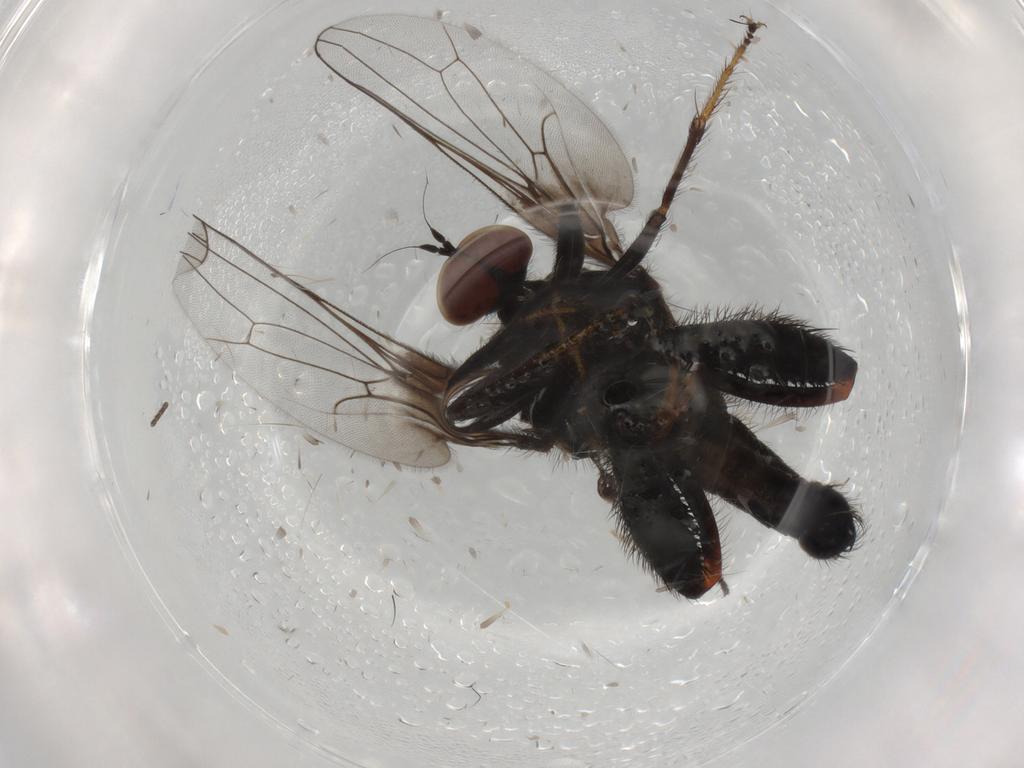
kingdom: Animalia
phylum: Arthropoda
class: Insecta
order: Diptera
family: Hybotidae
